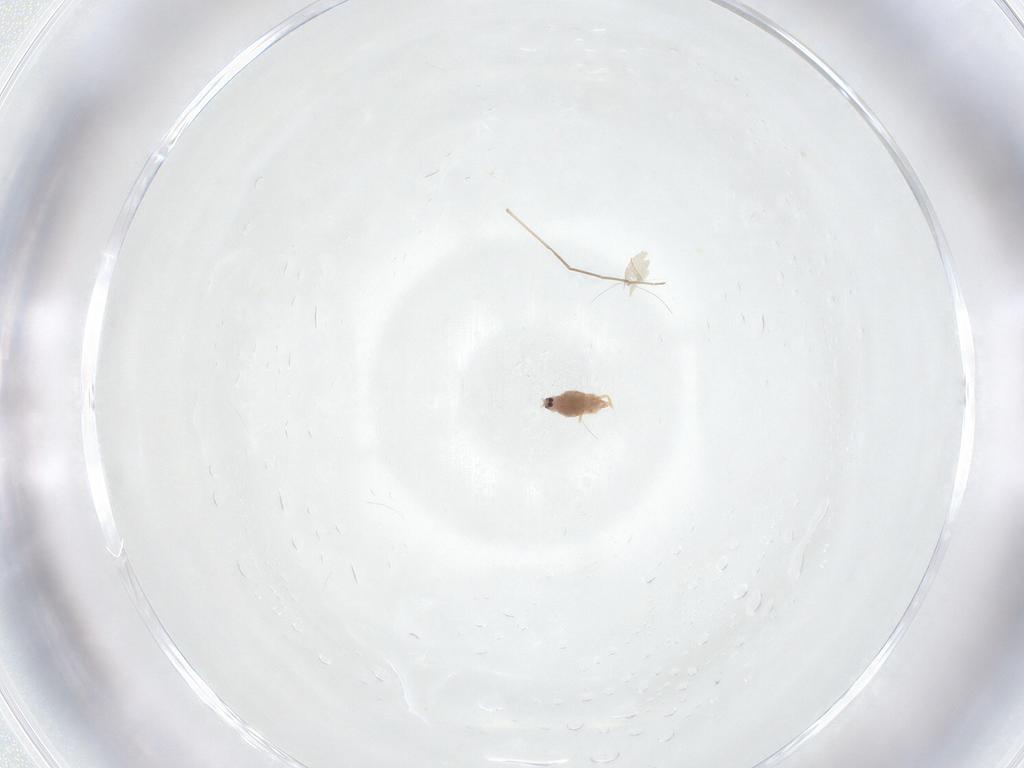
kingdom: Animalia
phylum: Arthropoda
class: Insecta
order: Hemiptera
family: Diaspididae
